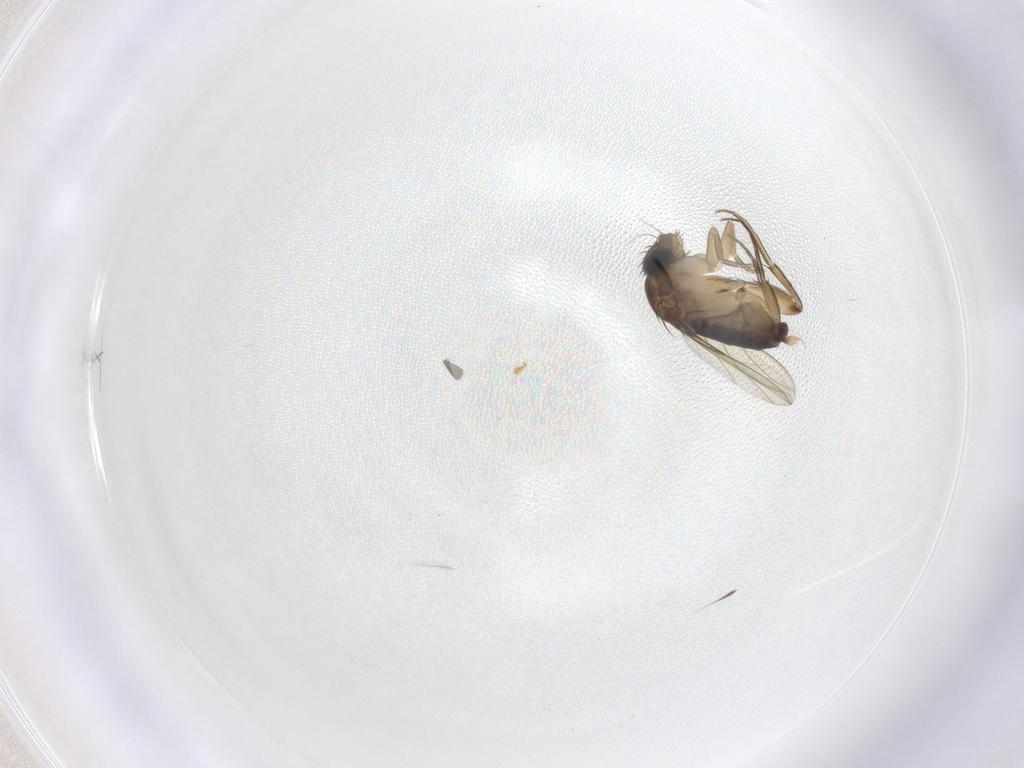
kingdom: Animalia
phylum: Arthropoda
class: Insecta
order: Diptera
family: Phoridae
